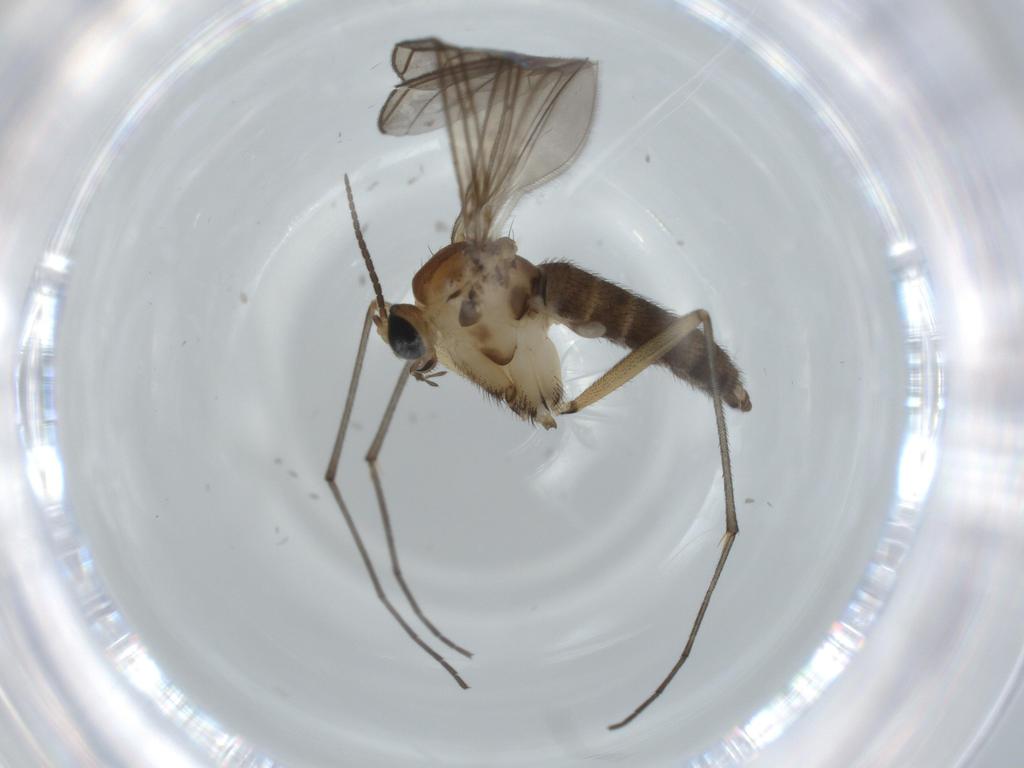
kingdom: Animalia
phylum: Arthropoda
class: Insecta
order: Diptera
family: Sciaridae
